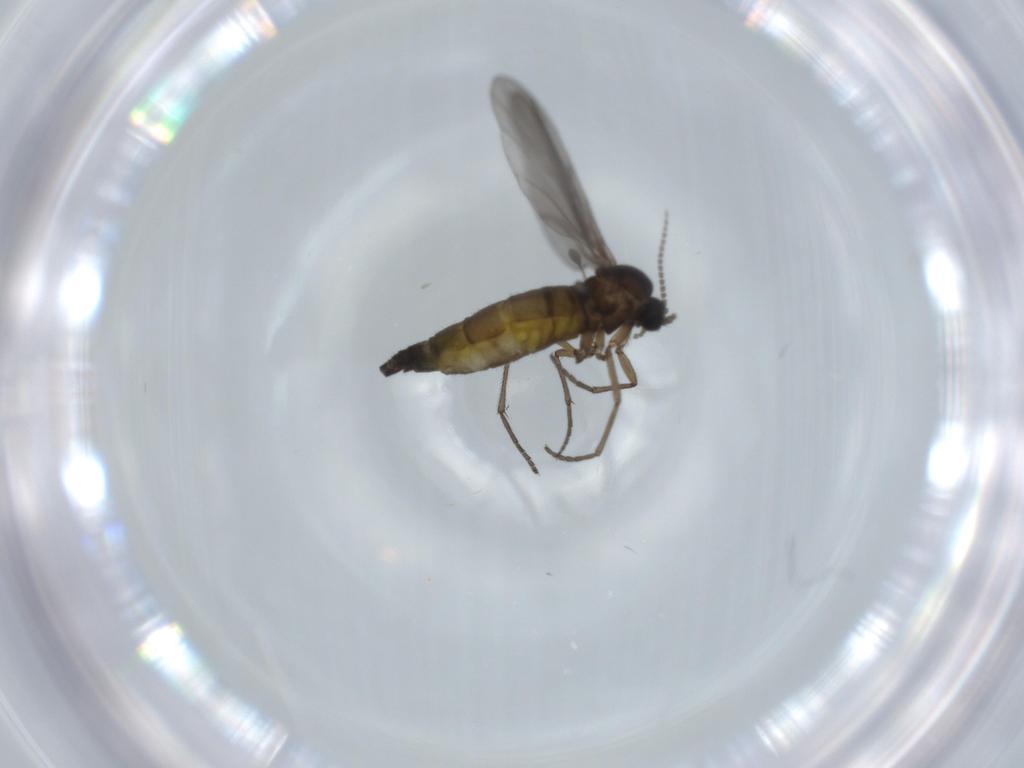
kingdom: Animalia
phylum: Arthropoda
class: Insecta
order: Diptera
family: Sciaridae
